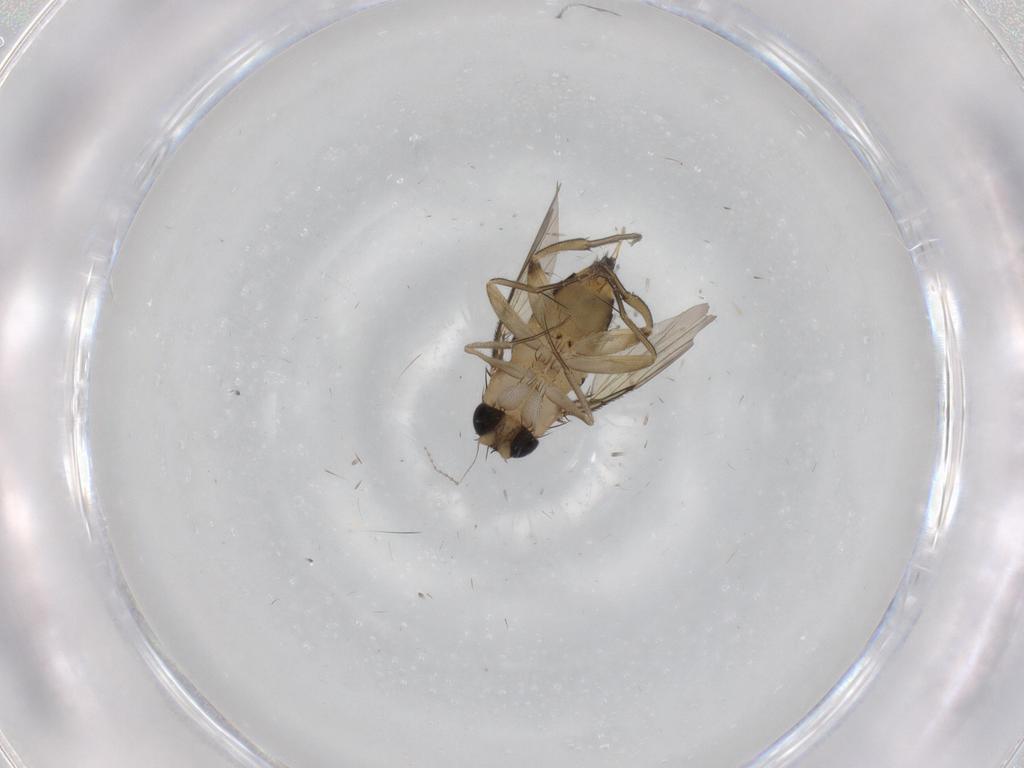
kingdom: Animalia
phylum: Arthropoda
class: Insecta
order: Diptera
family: Phoridae
